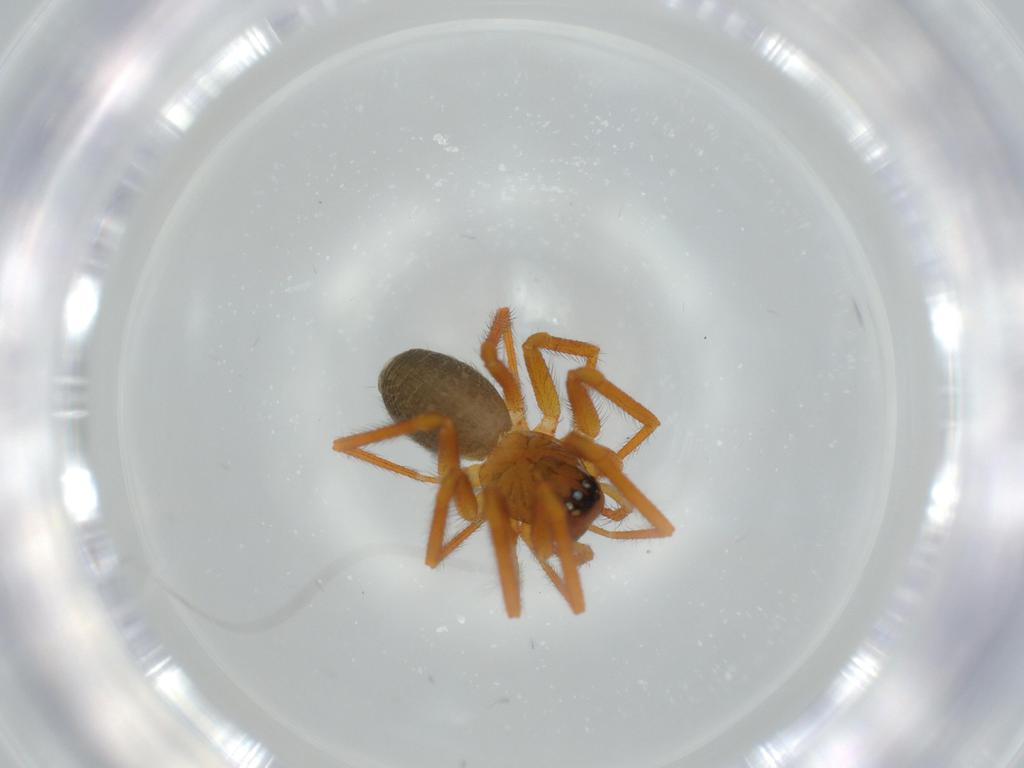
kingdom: Animalia
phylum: Arthropoda
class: Arachnida
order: Araneae
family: Linyphiidae
